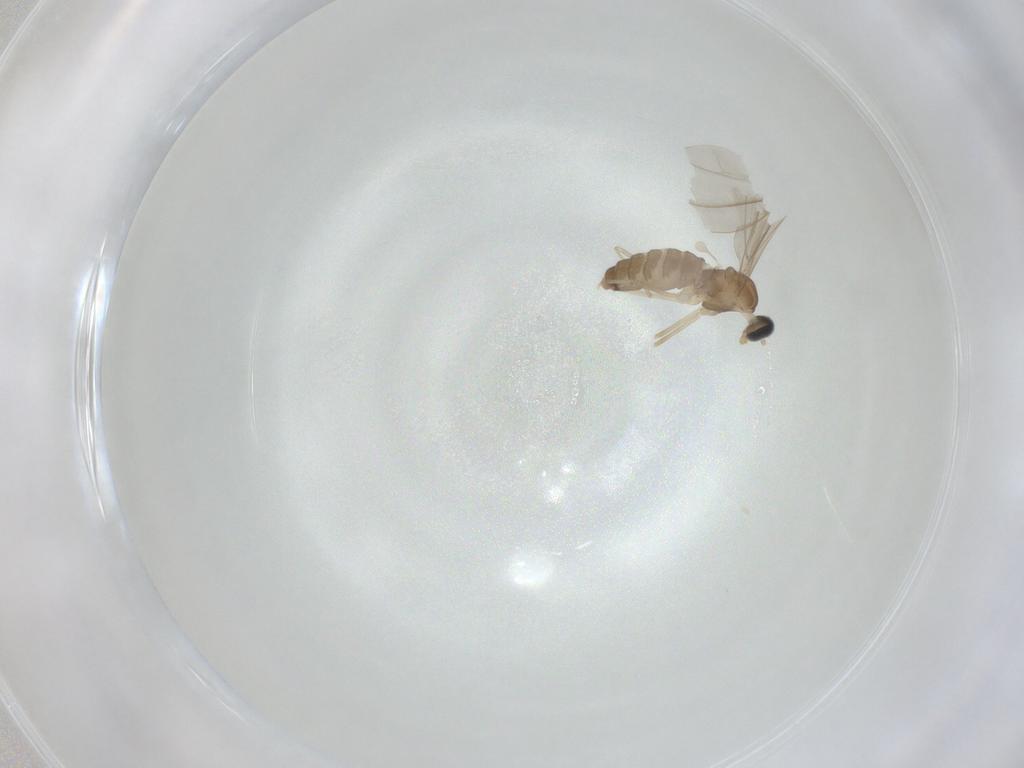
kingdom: Animalia
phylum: Arthropoda
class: Insecta
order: Diptera
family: Cecidomyiidae
